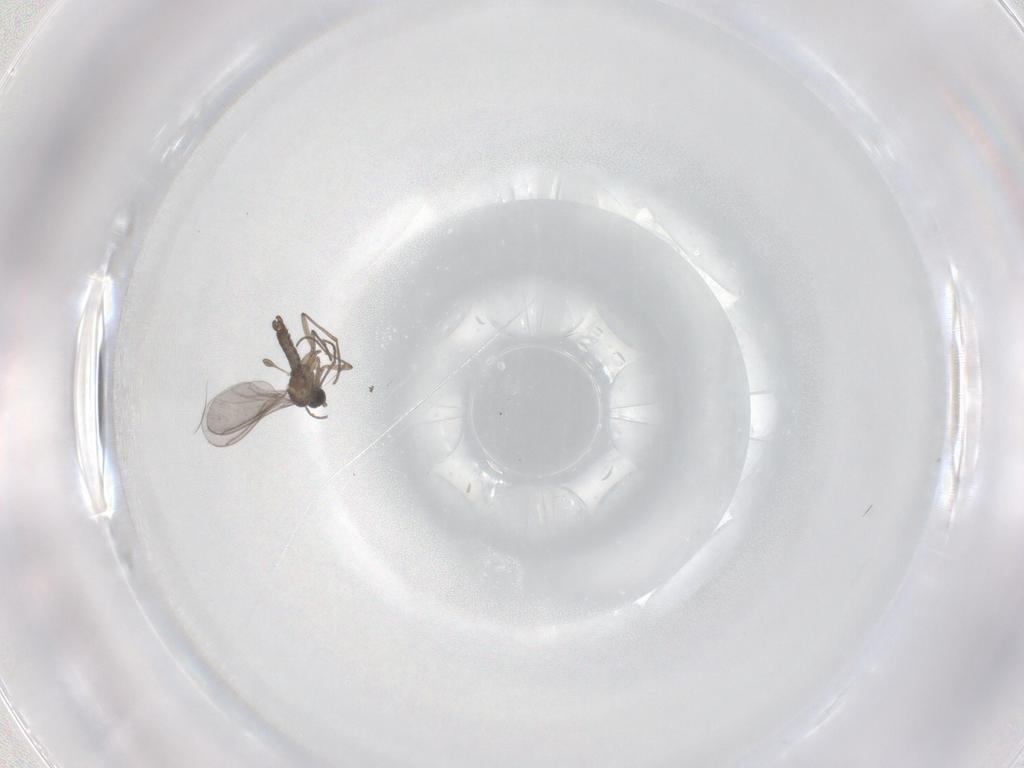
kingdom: Animalia
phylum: Arthropoda
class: Insecta
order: Diptera
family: Sciaridae
